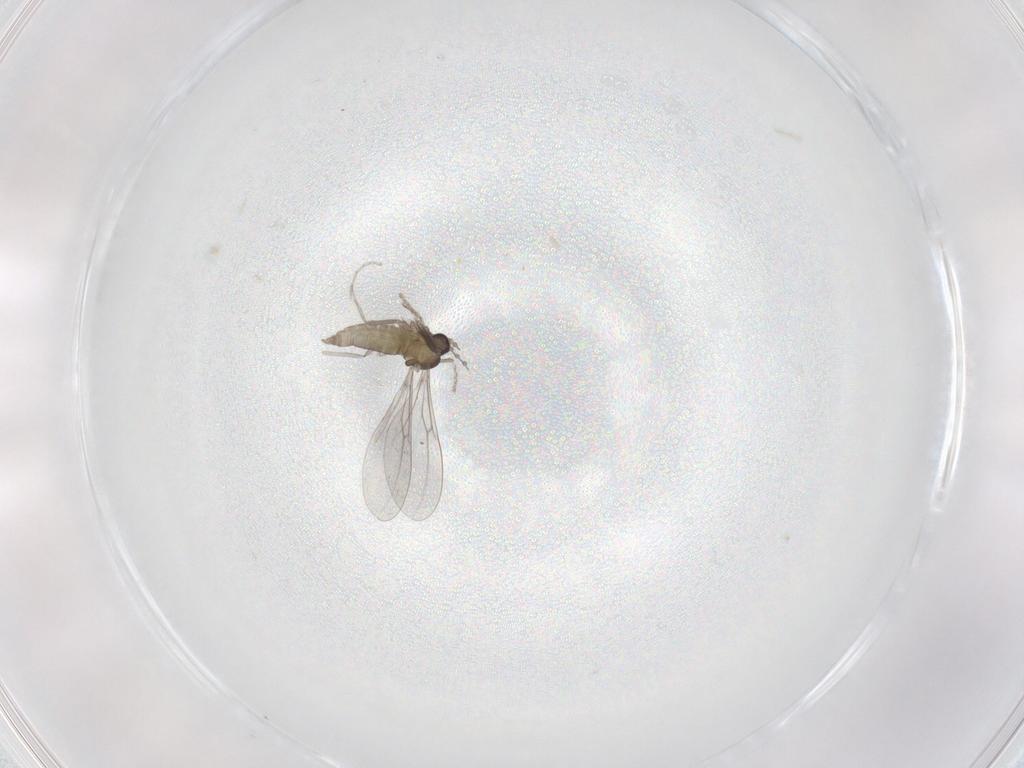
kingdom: Animalia
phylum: Arthropoda
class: Insecta
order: Diptera
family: Cecidomyiidae
